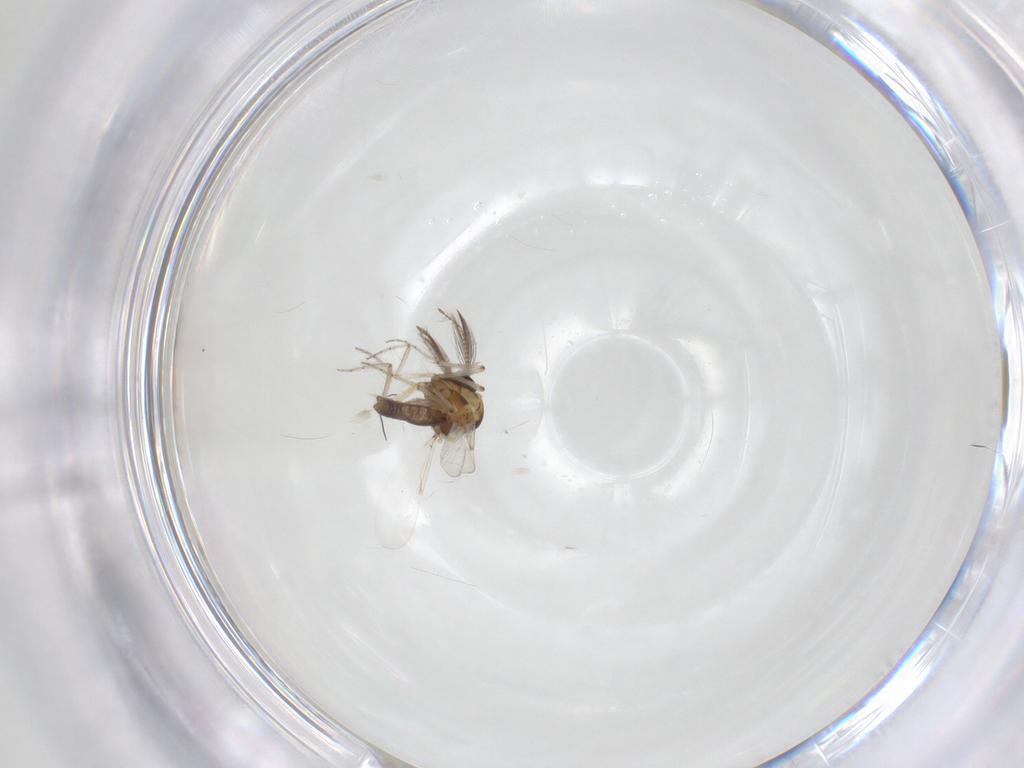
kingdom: Animalia
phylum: Arthropoda
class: Insecta
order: Diptera
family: Ceratopogonidae
